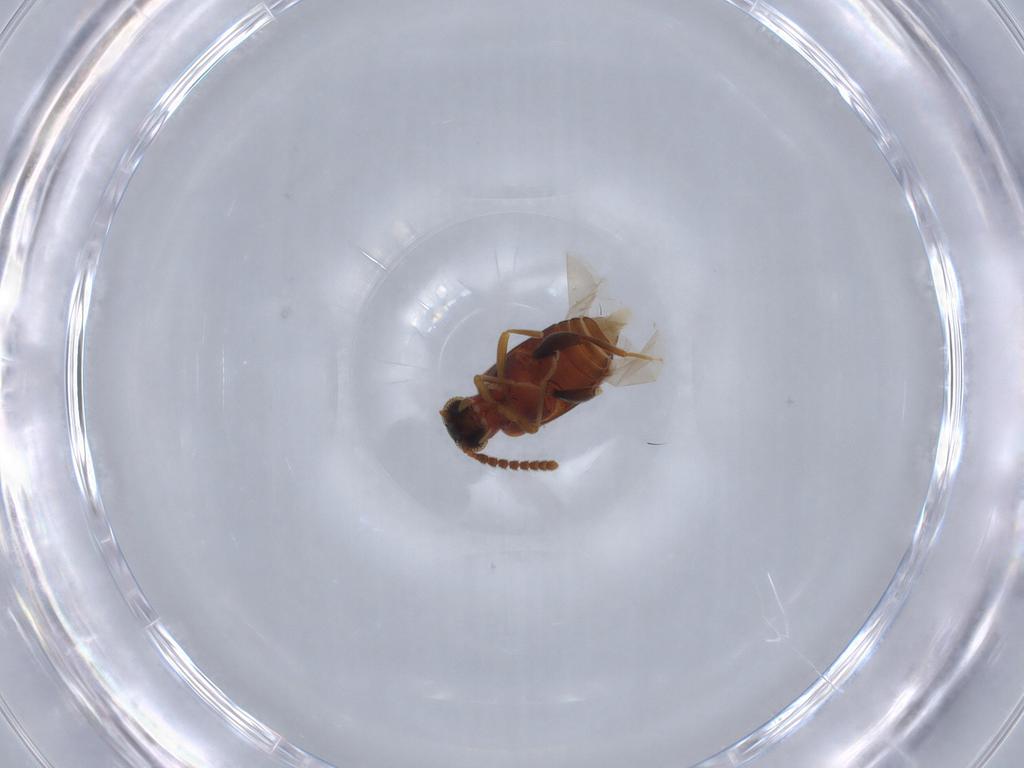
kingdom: Animalia
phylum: Arthropoda
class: Insecta
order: Coleoptera
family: Aderidae
